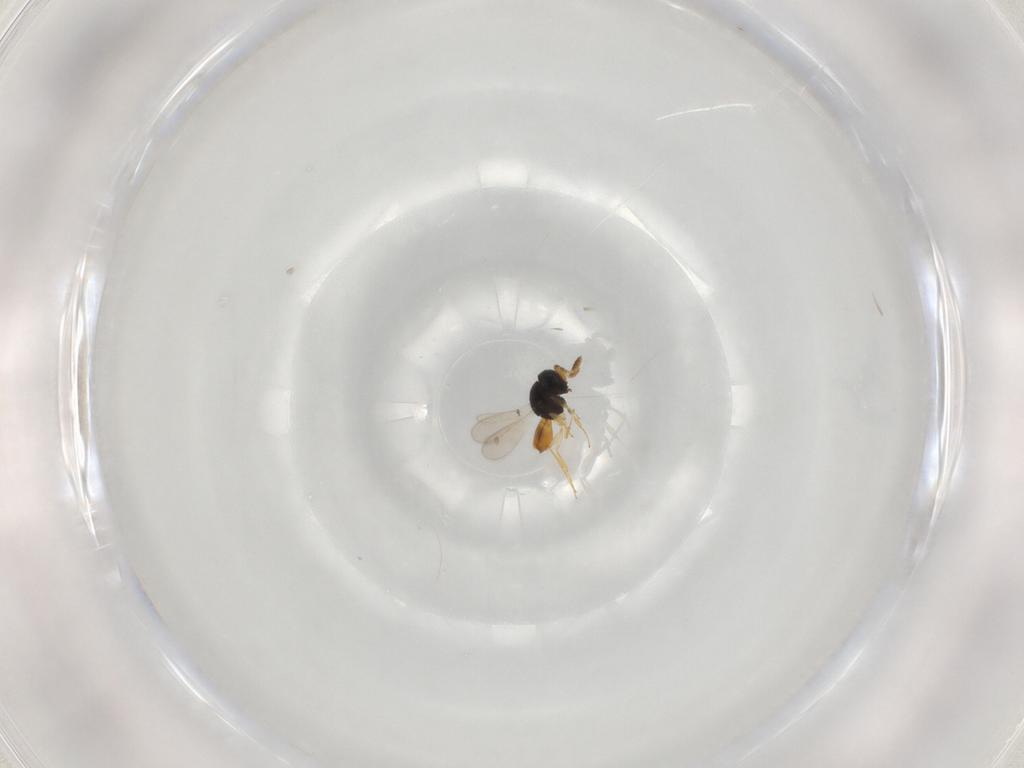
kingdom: Animalia
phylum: Arthropoda
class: Insecta
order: Hymenoptera
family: Scelionidae
